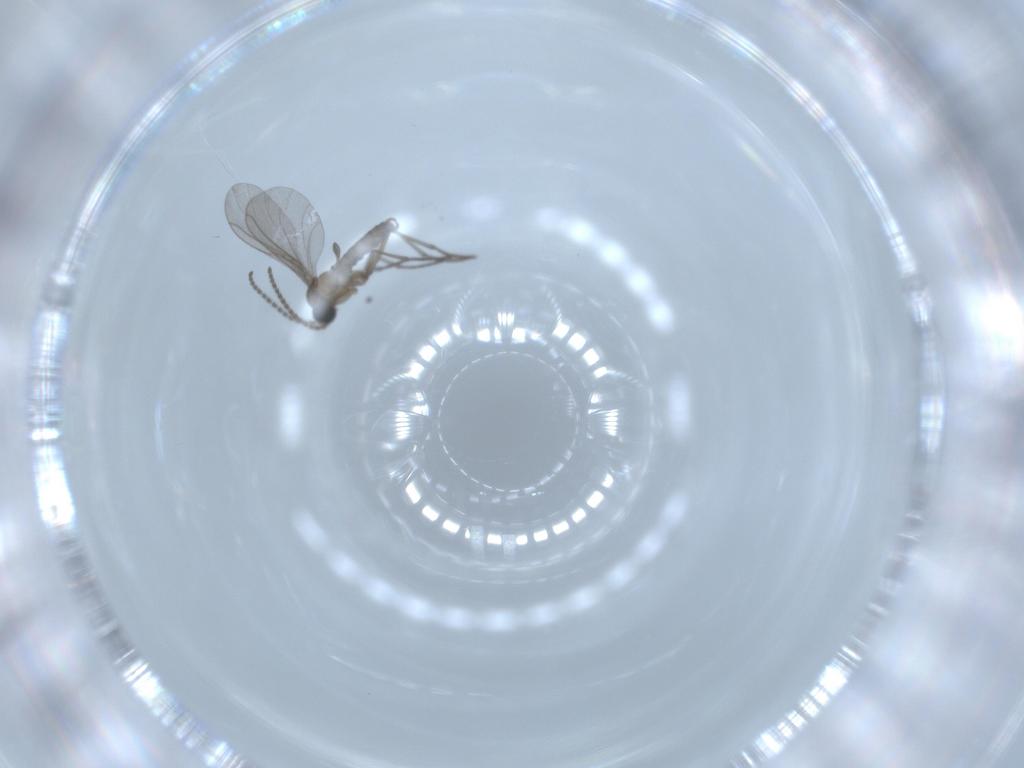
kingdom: Animalia
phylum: Arthropoda
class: Insecta
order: Diptera
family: Sciaridae
